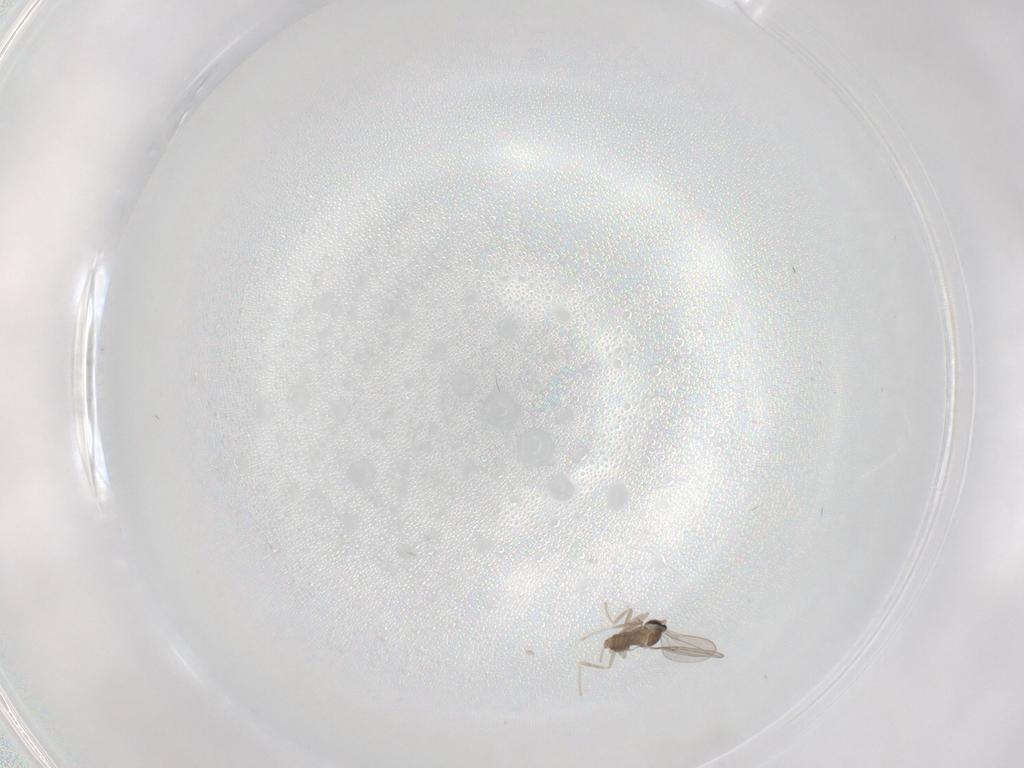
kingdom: Animalia
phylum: Arthropoda
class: Insecta
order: Diptera
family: Cecidomyiidae
